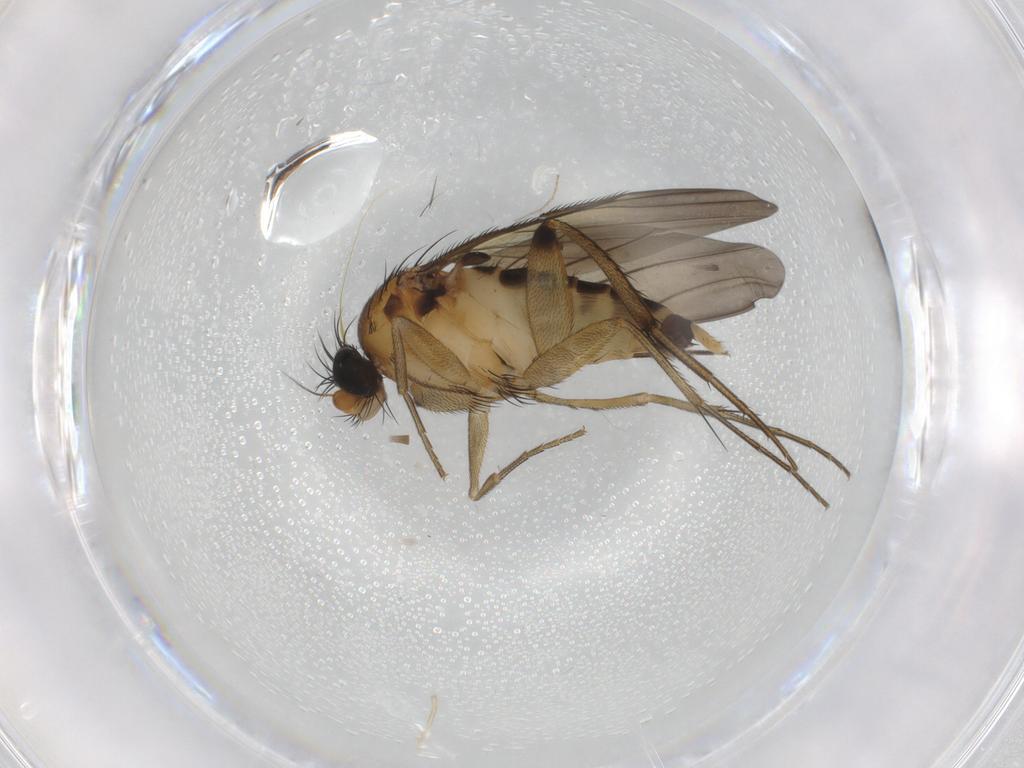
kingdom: Animalia
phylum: Arthropoda
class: Insecta
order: Diptera
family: Phoridae
